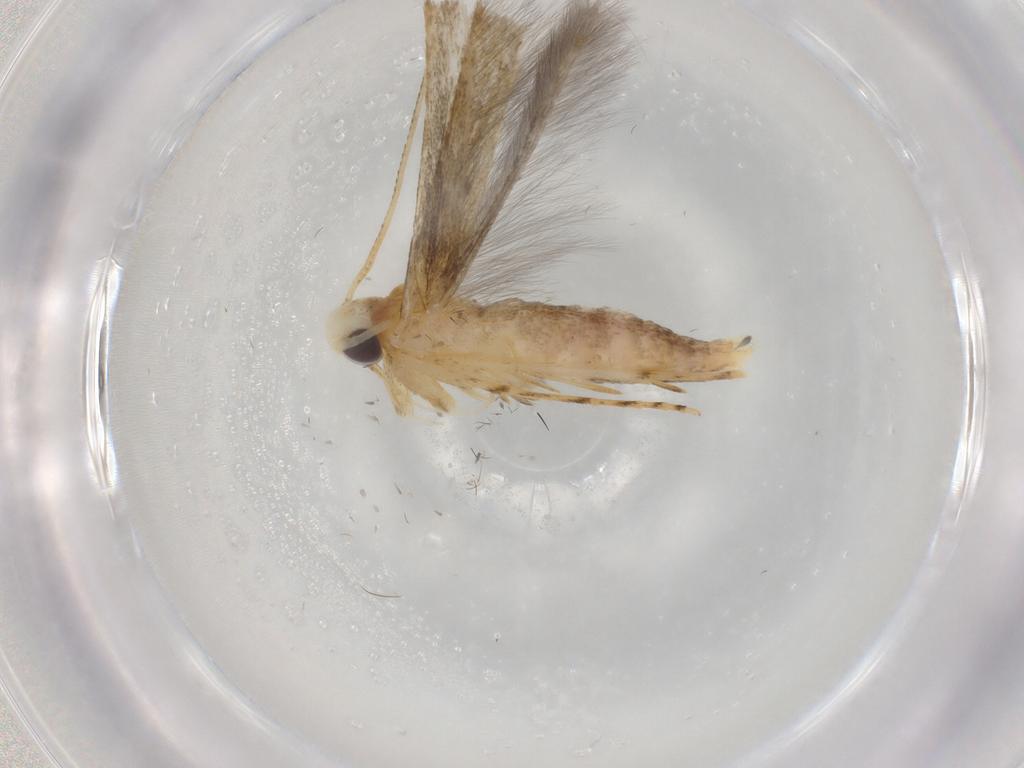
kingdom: Animalia
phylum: Arthropoda
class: Insecta
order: Lepidoptera
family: Batrachedridae
